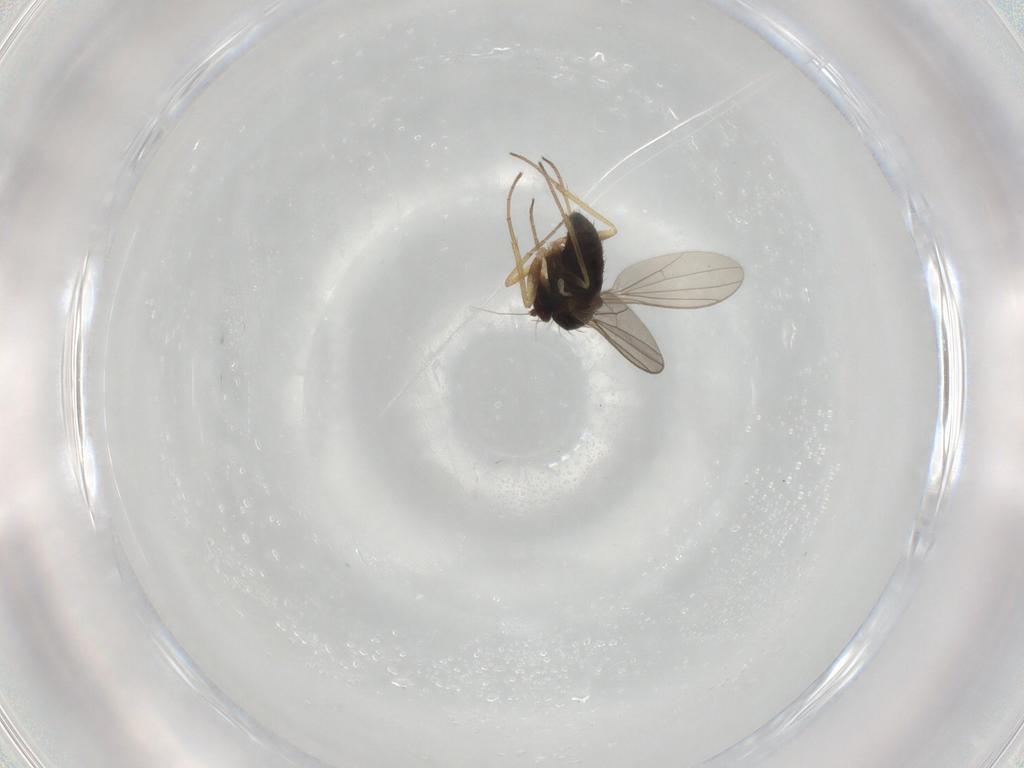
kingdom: Animalia
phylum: Arthropoda
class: Insecta
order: Diptera
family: Dolichopodidae
